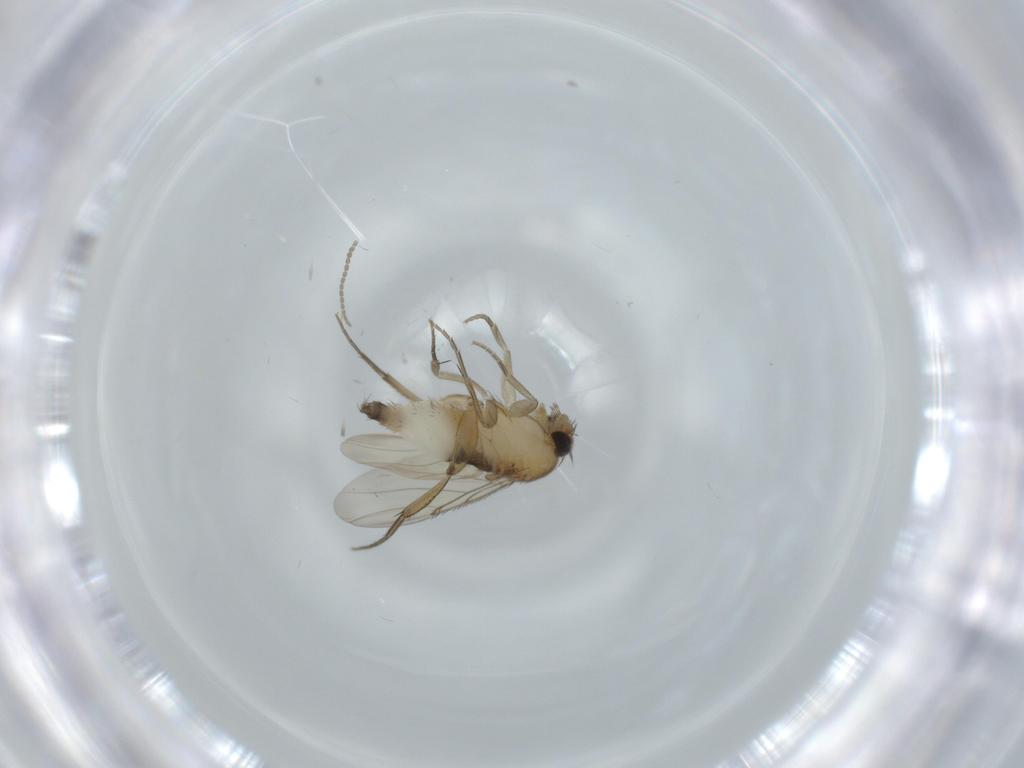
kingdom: Animalia
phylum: Arthropoda
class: Insecta
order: Diptera
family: Phoridae
